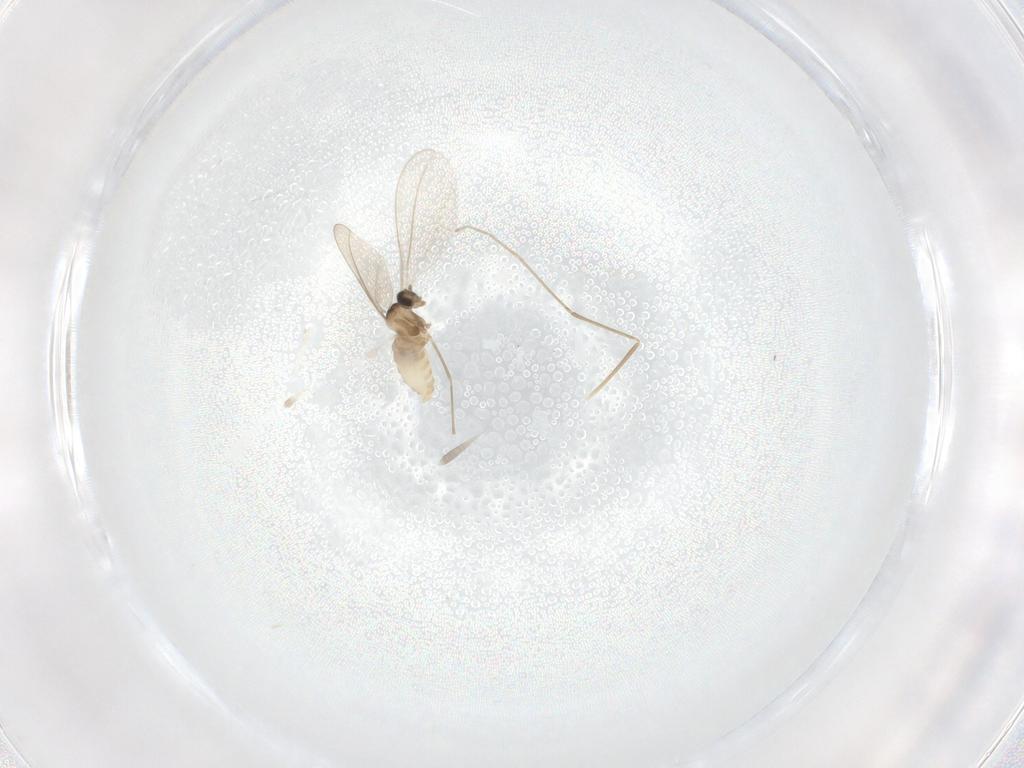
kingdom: Animalia
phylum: Arthropoda
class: Insecta
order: Diptera
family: Cecidomyiidae
